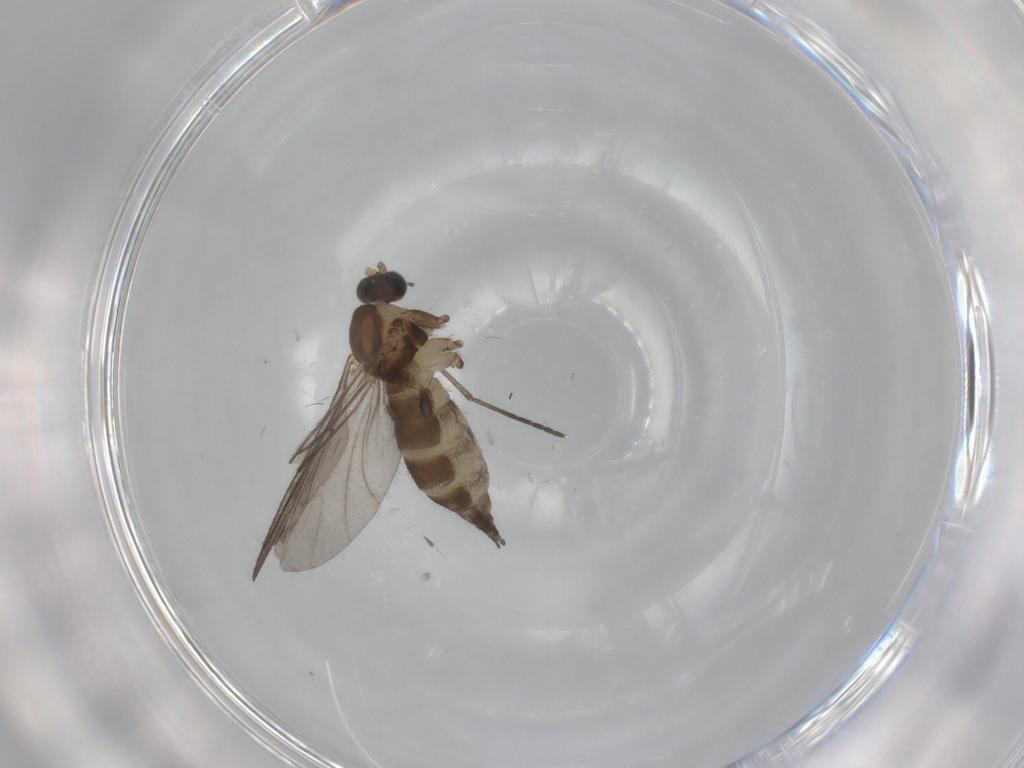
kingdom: Animalia
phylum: Arthropoda
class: Insecta
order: Diptera
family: Sciaridae
